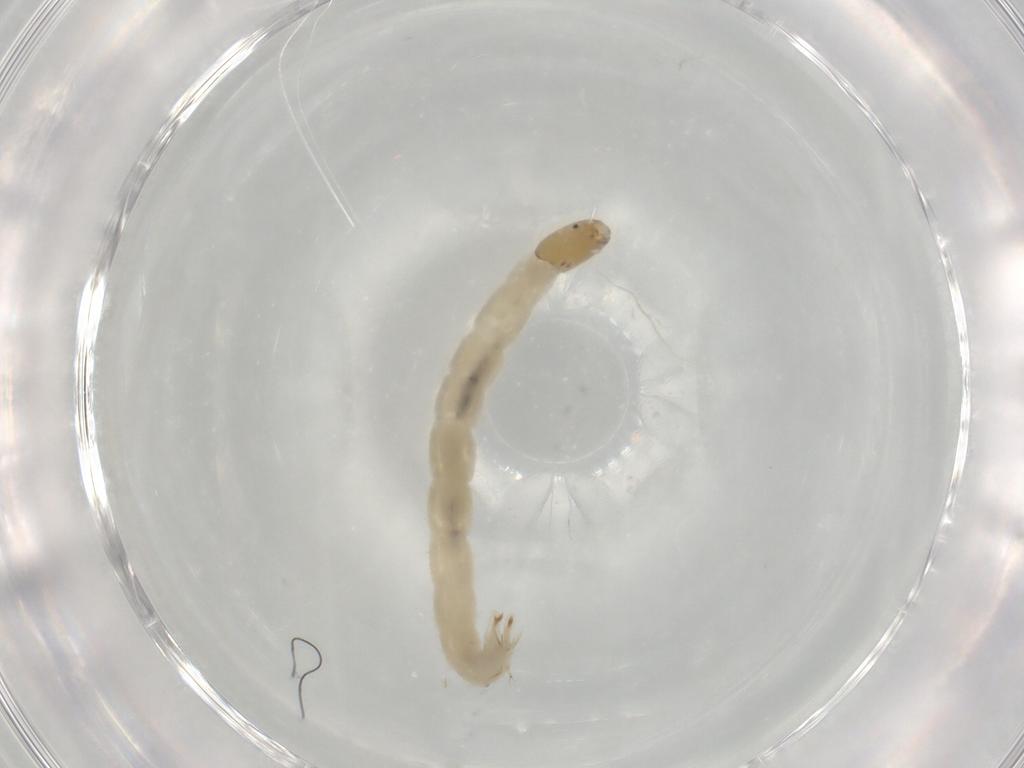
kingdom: Animalia
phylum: Arthropoda
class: Insecta
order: Diptera
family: Chironomidae
